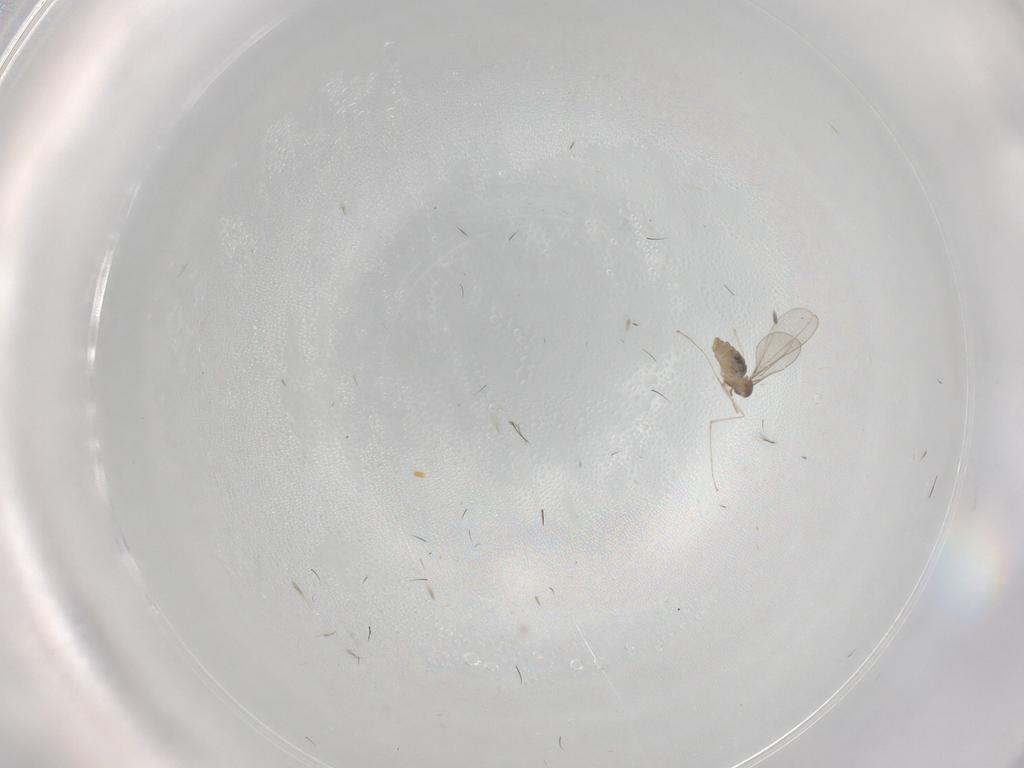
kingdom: Animalia
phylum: Arthropoda
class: Insecta
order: Diptera
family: Cecidomyiidae
